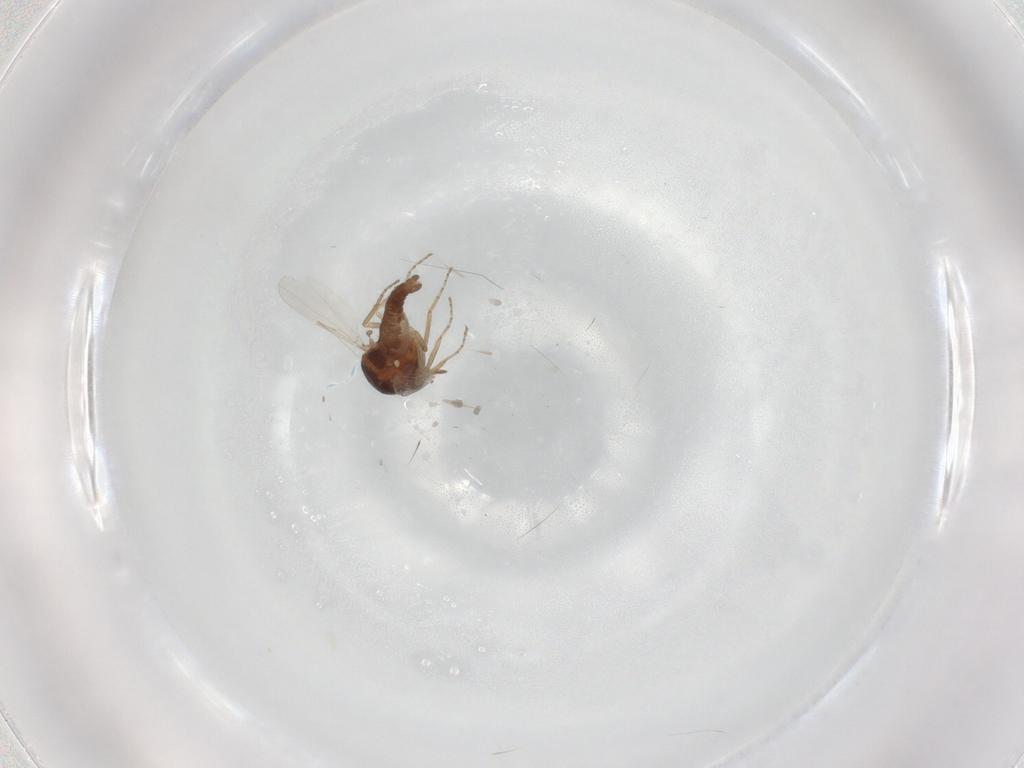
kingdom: Animalia
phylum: Arthropoda
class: Insecta
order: Diptera
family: Ceratopogonidae
